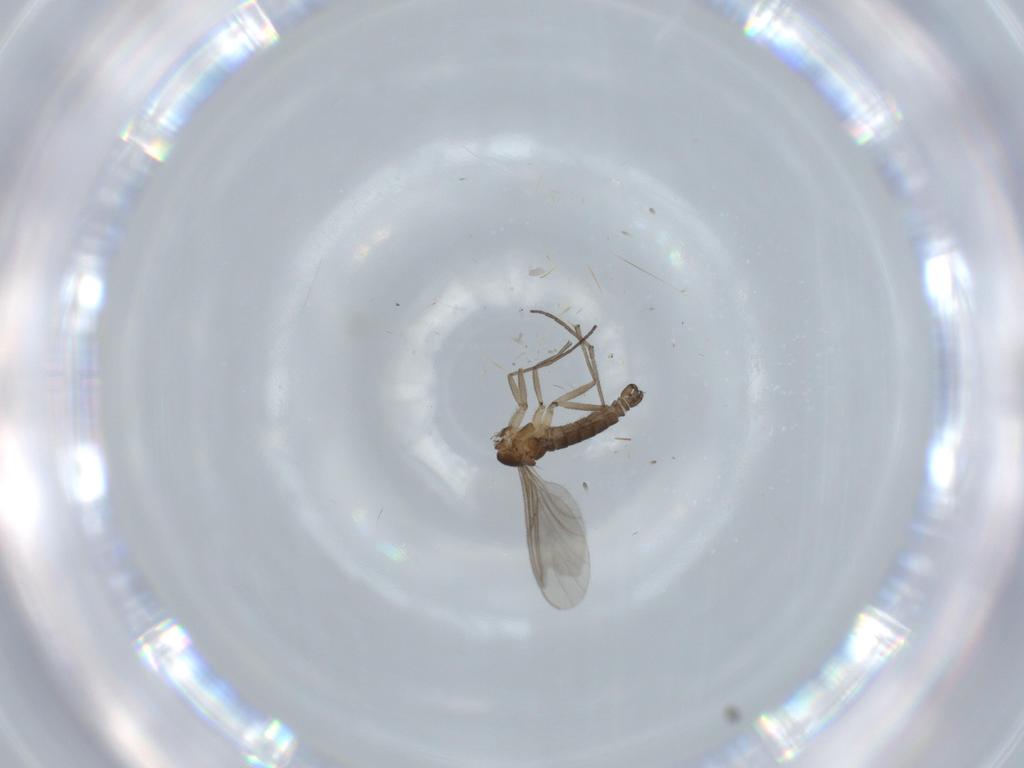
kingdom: Animalia
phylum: Arthropoda
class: Insecta
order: Diptera
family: Sciaridae
